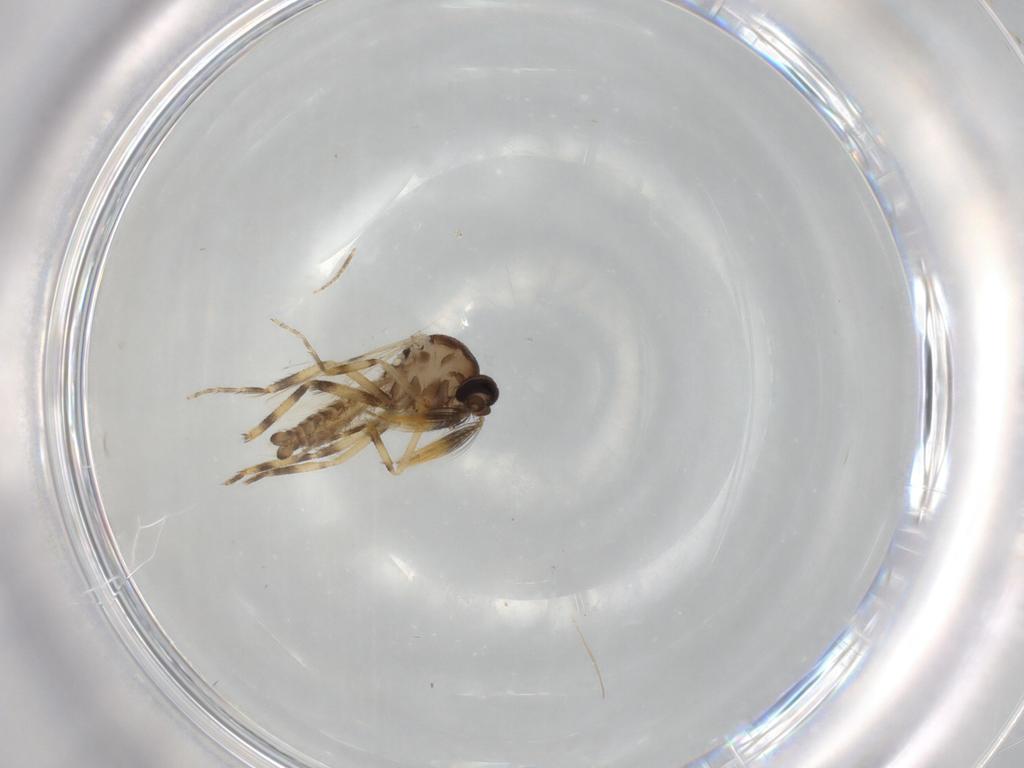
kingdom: Animalia
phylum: Arthropoda
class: Insecta
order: Diptera
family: Ceratopogonidae
